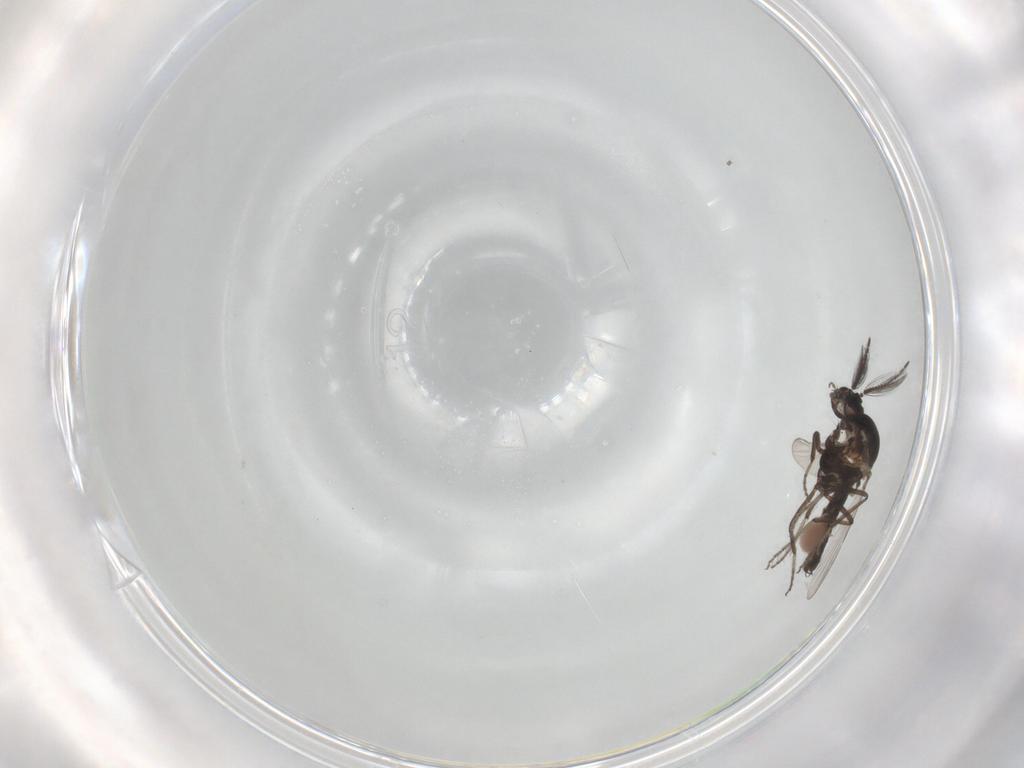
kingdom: Animalia
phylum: Arthropoda
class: Insecta
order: Diptera
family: Ceratopogonidae
